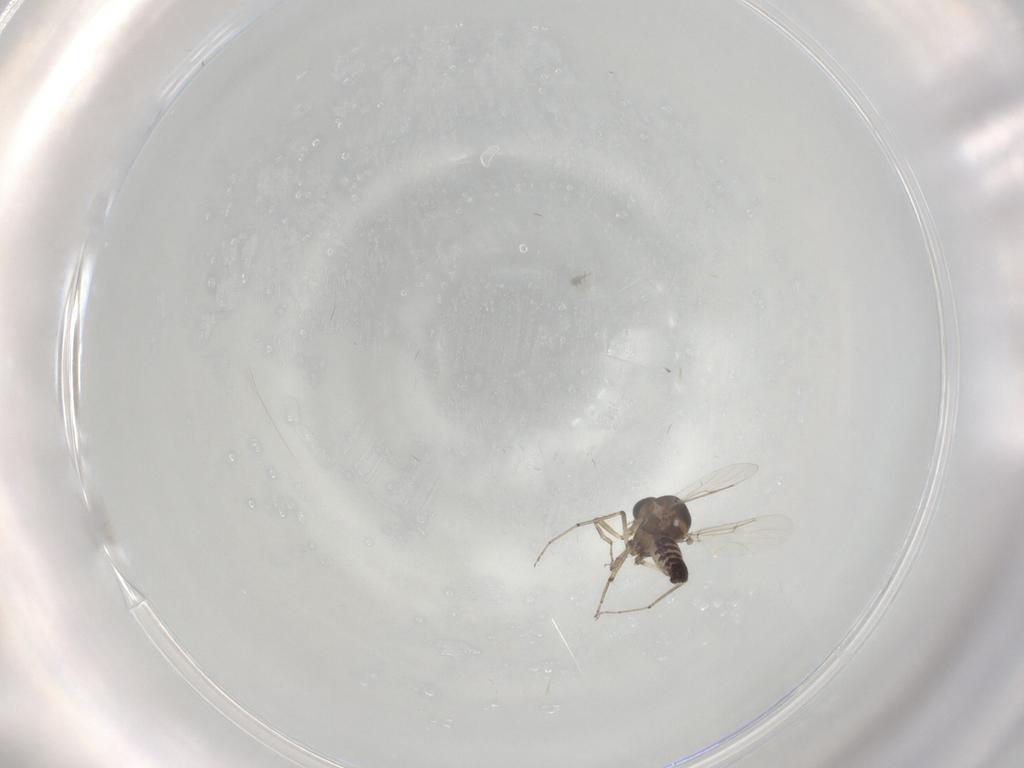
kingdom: Animalia
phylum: Arthropoda
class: Insecta
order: Diptera
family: Ceratopogonidae
